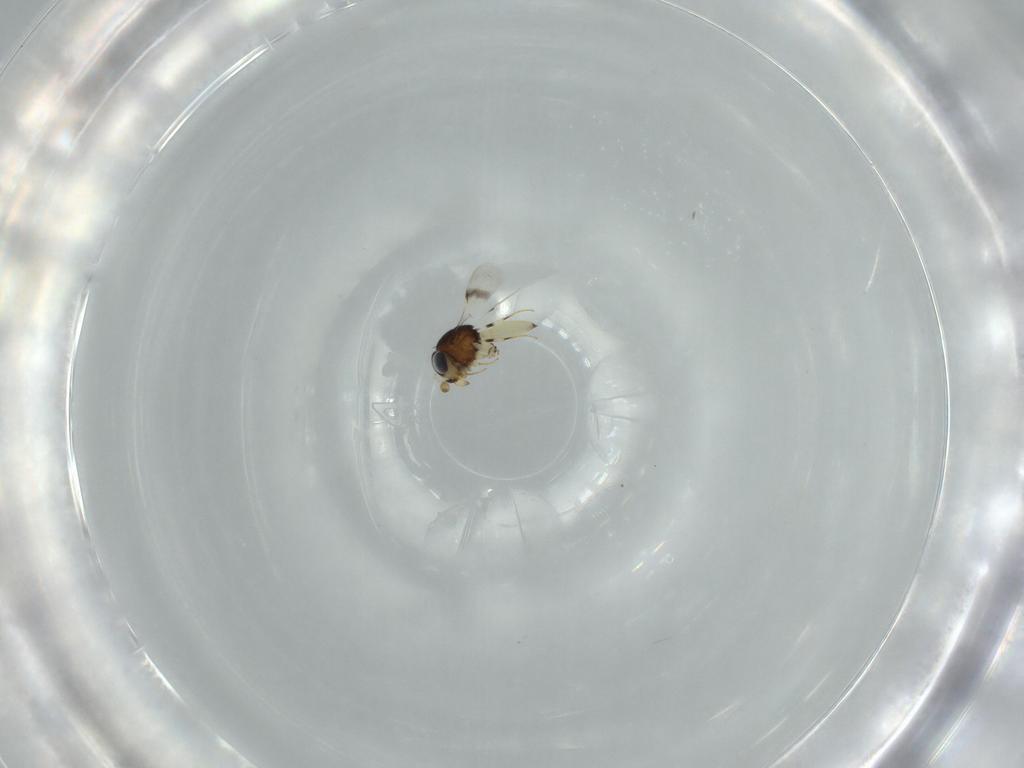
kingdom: Animalia
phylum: Arthropoda
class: Insecta
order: Hymenoptera
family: Scelionidae
